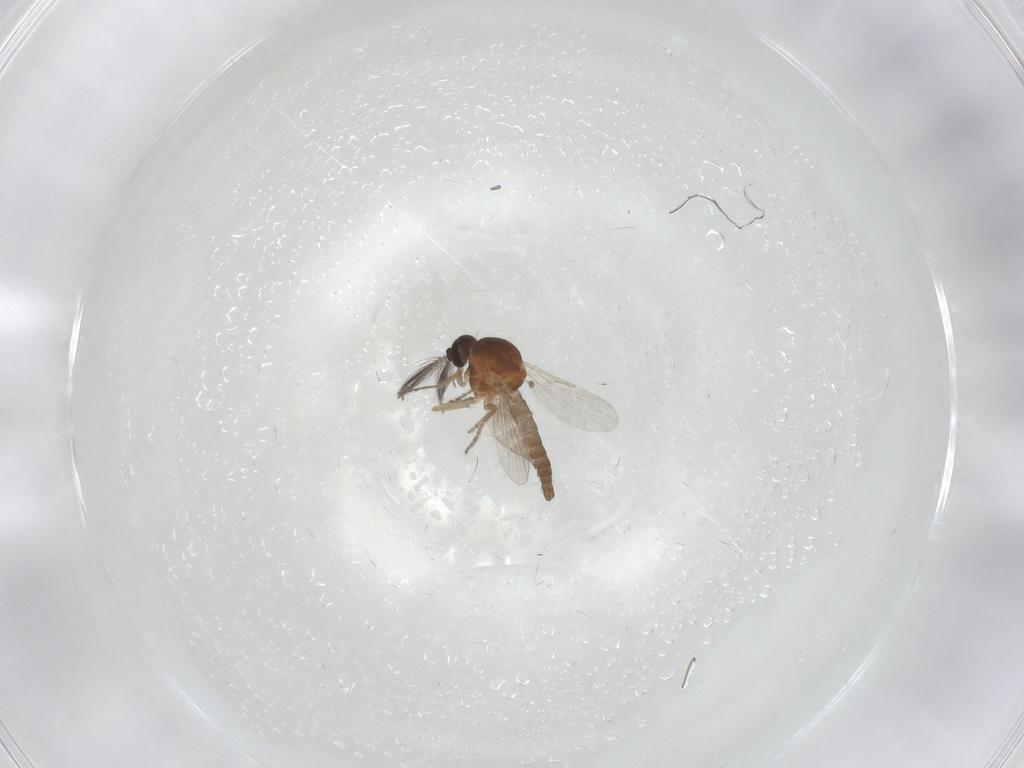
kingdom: Animalia
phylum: Arthropoda
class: Insecta
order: Diptera
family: Ceratopogonidae
